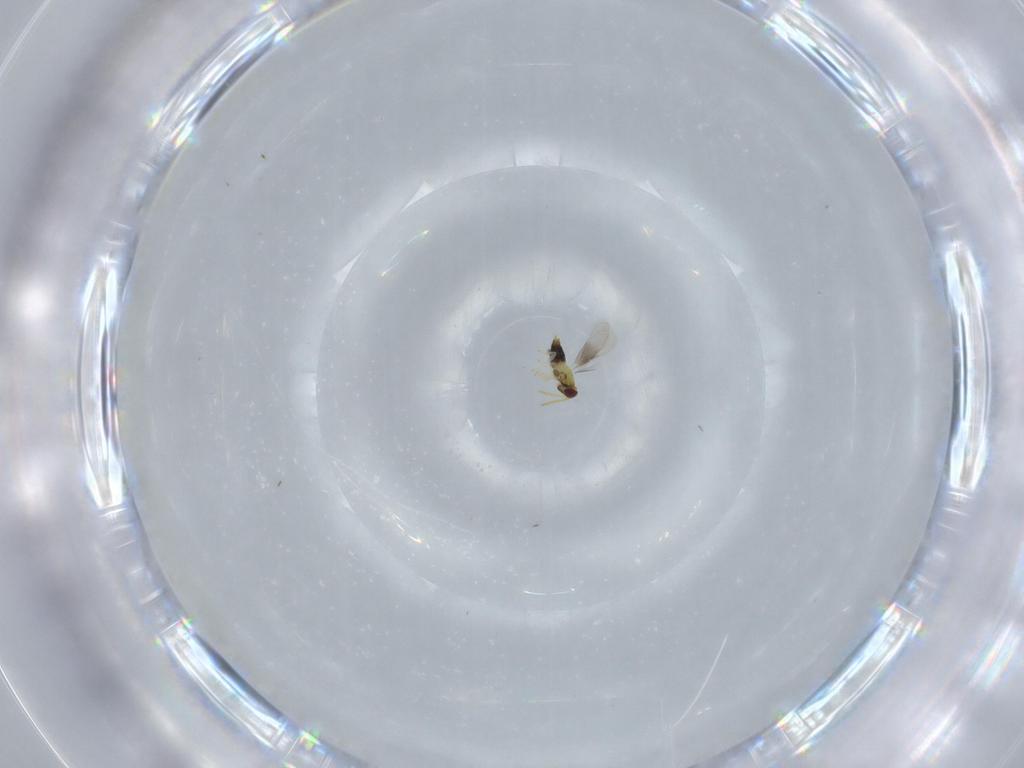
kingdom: Animalia
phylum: Arthropoda
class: Insecta
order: Hymenoptera
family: Aphelinidae
